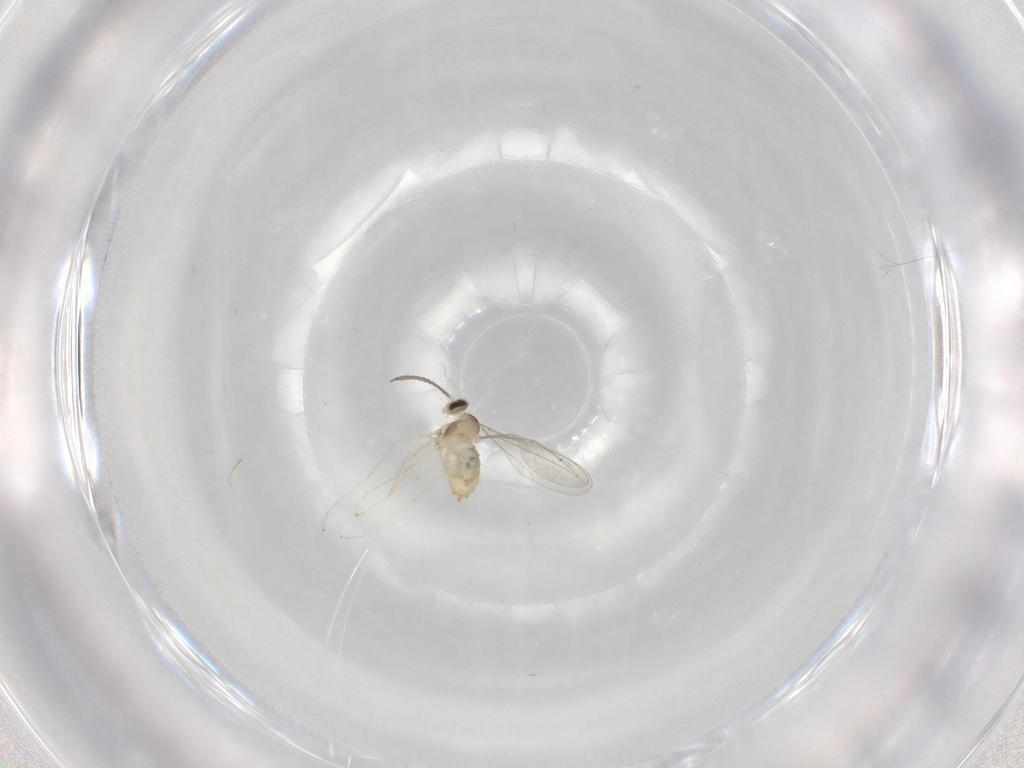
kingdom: Animalia
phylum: Arthropoda
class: Insecta
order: Diptera
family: Cecidomyiidae
